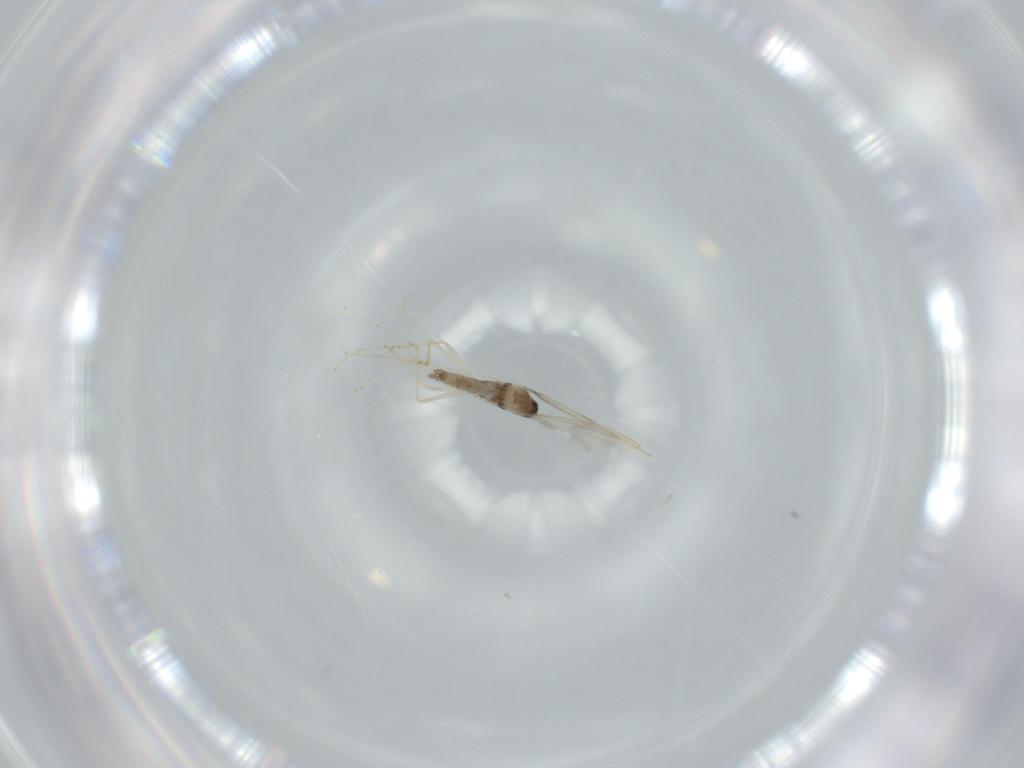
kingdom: Animalia
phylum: Arthropoda
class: Insecta
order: Diptera
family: Cecidomyiidae
